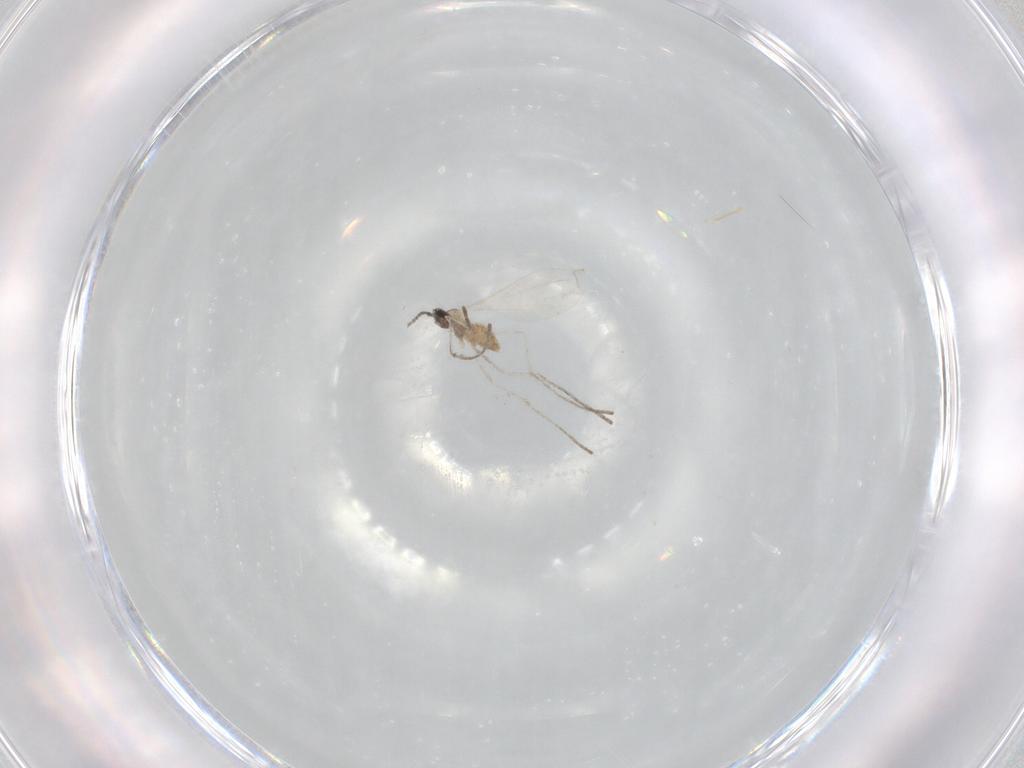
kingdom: Animalia
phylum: Arthropoda
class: Insecta
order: Diptera
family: Cecidomyiidae
